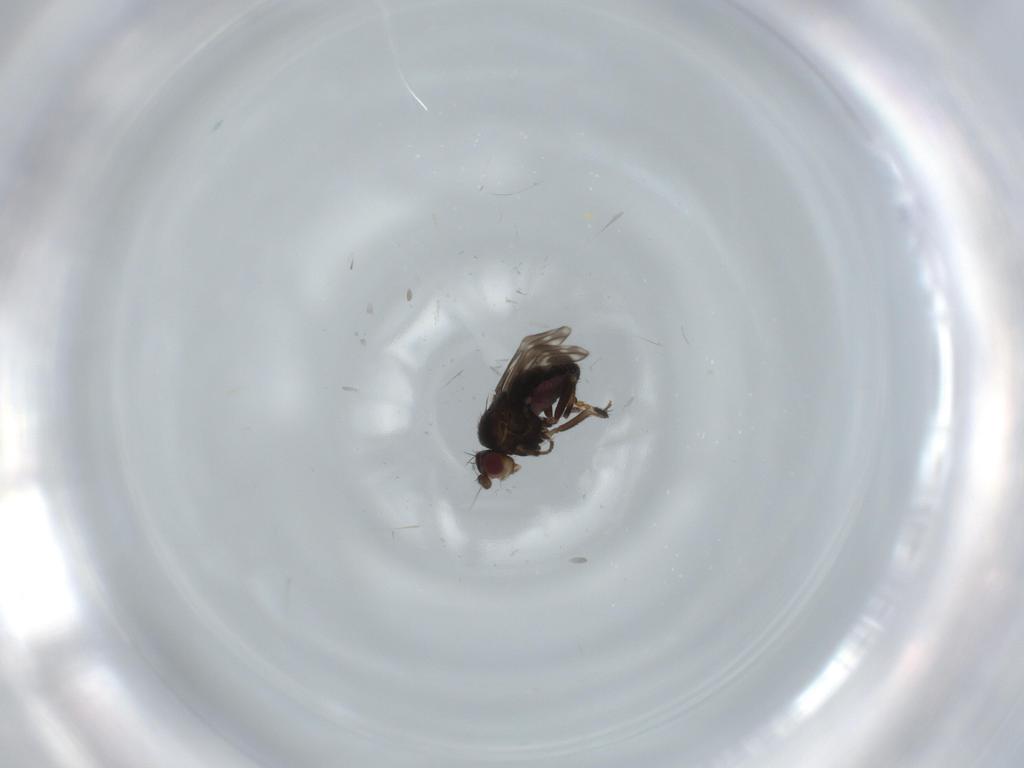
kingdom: Animalia
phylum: Arthropoda
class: Insecta
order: Diptera
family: Sphaeroceridae
